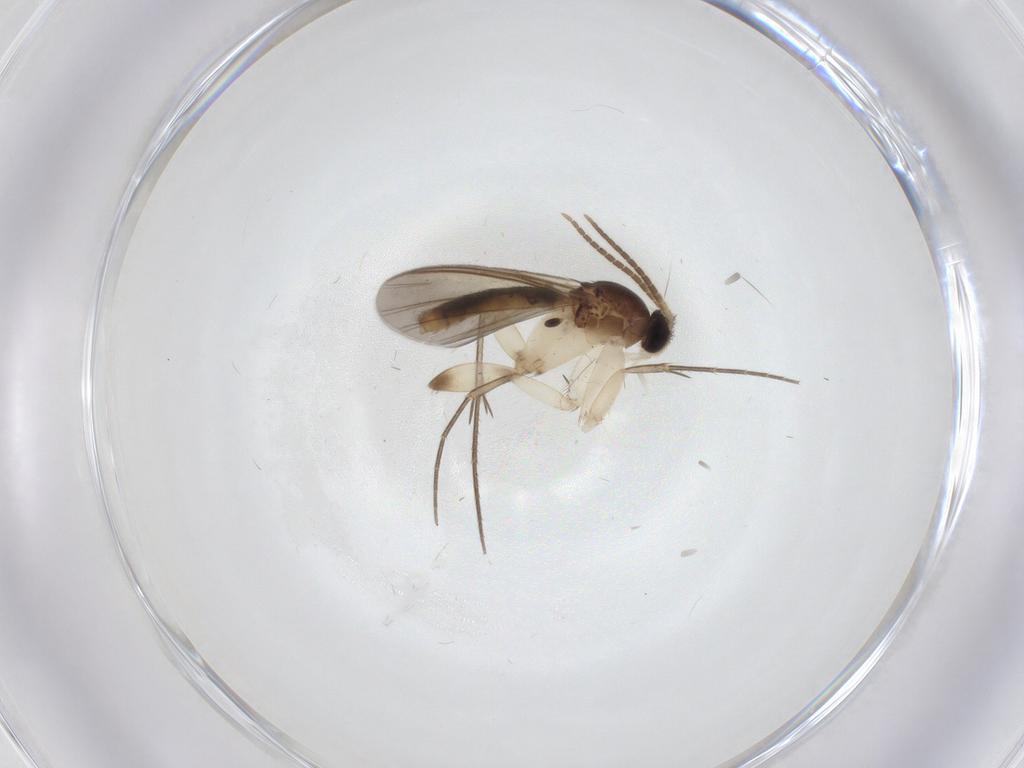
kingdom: Animalia
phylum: Arthropoda
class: Insecta
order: Diptera
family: Mycetophilidae
